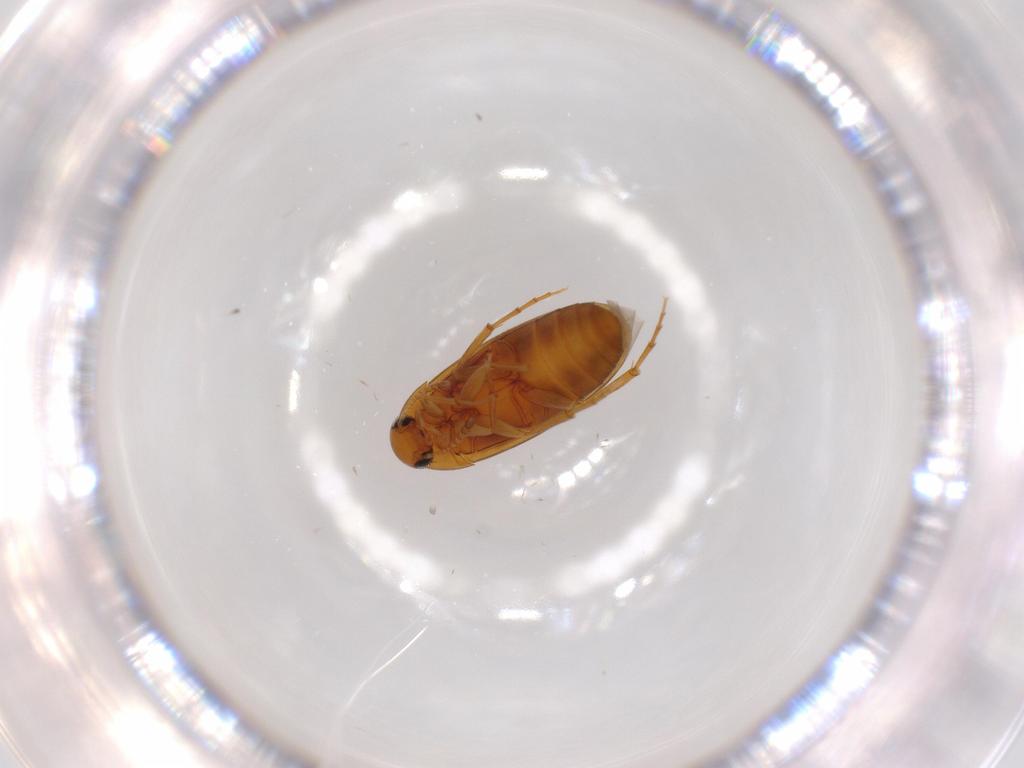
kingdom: Animalia
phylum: Arthropoda
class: Insecta
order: Coleoptera
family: Scraptiidae
